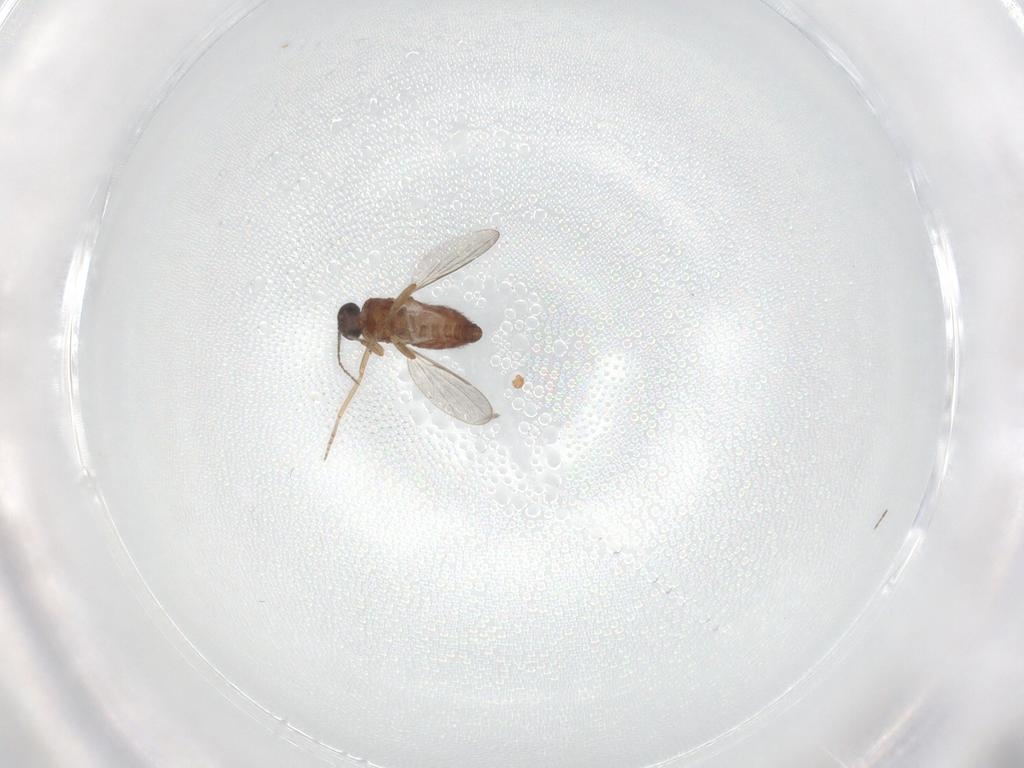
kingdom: Animalia
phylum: Arthropoda
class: Insecta
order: Diptera
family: Ceratopogonidae
